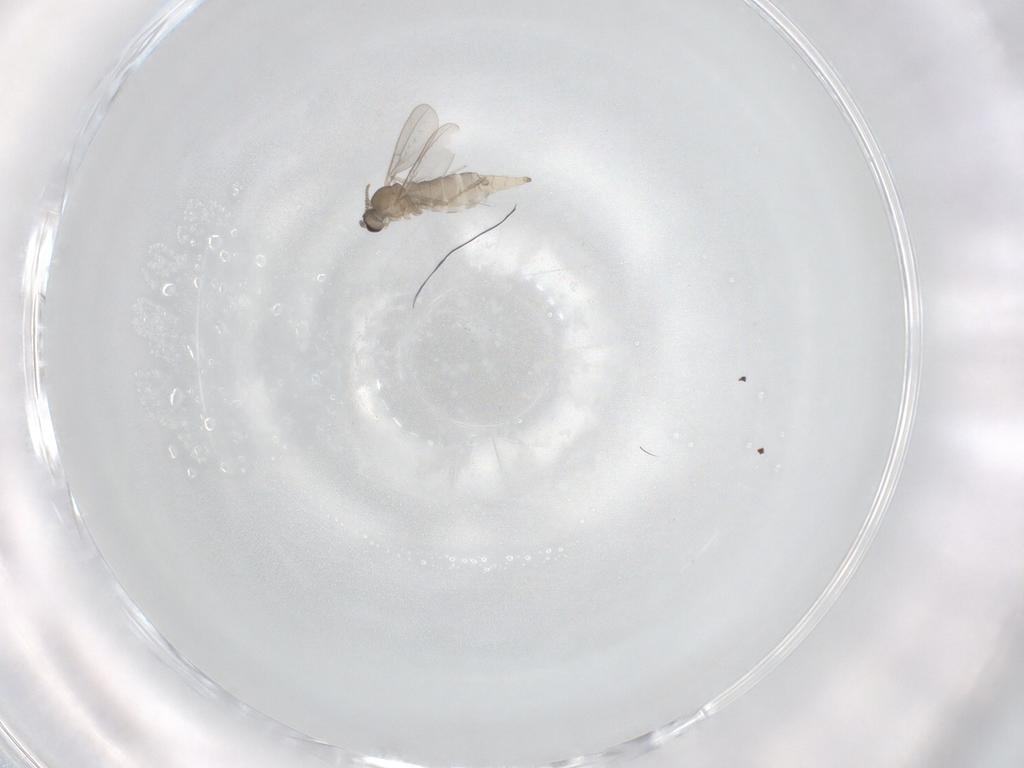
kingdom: Animalia
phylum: Arthropoda
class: Insecta
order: Diptera
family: Cecidomyiidae
